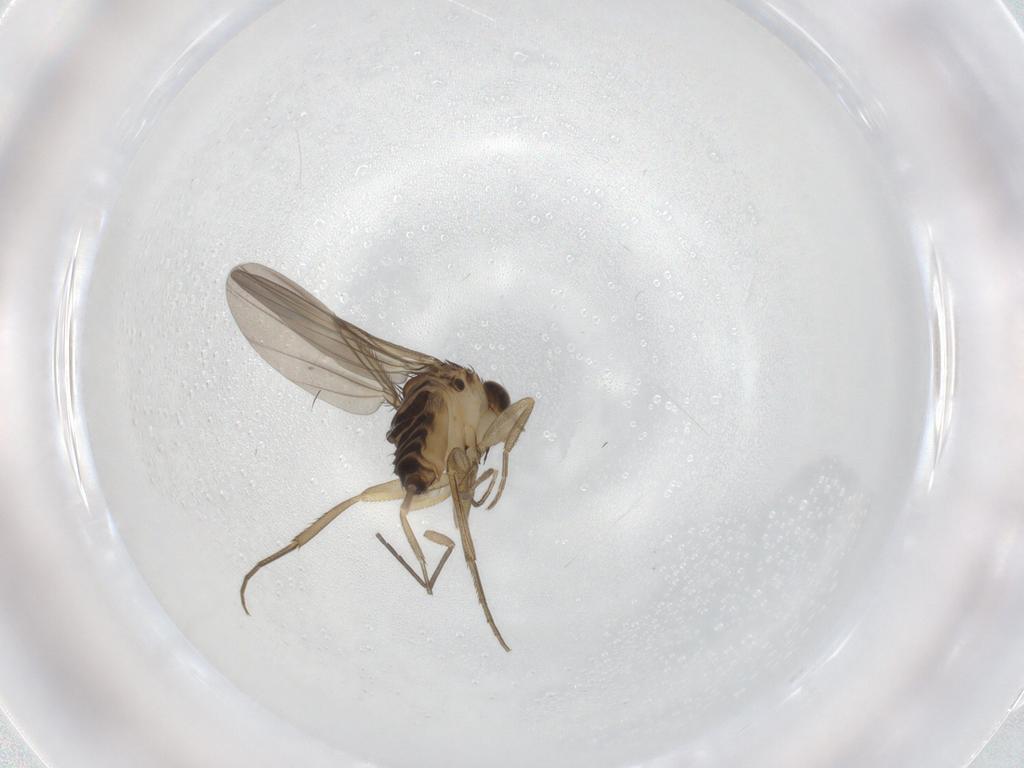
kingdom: Animalia
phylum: Arthropoda
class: Insecta
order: Diptera
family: Phoridae
